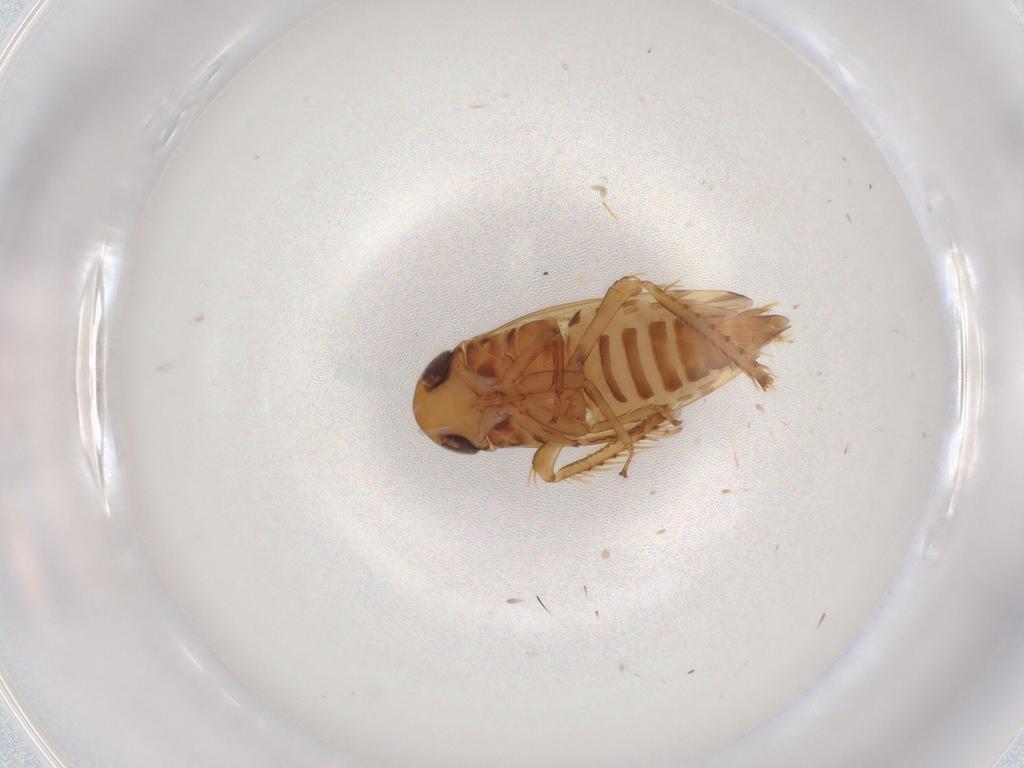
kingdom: Animalia
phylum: Arthropoda
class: Insecta
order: Hemiptera
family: Cicadellidae
